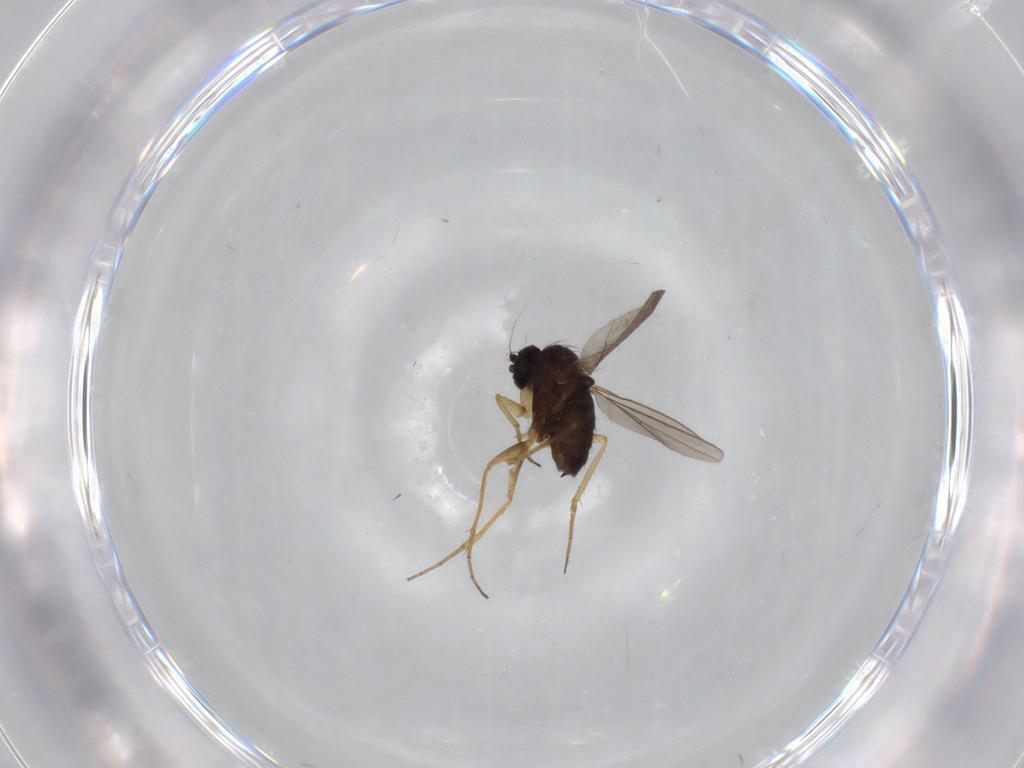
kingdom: Animalia
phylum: Arthropoda
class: Insecta
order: Diptera
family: Dolichopodidae
